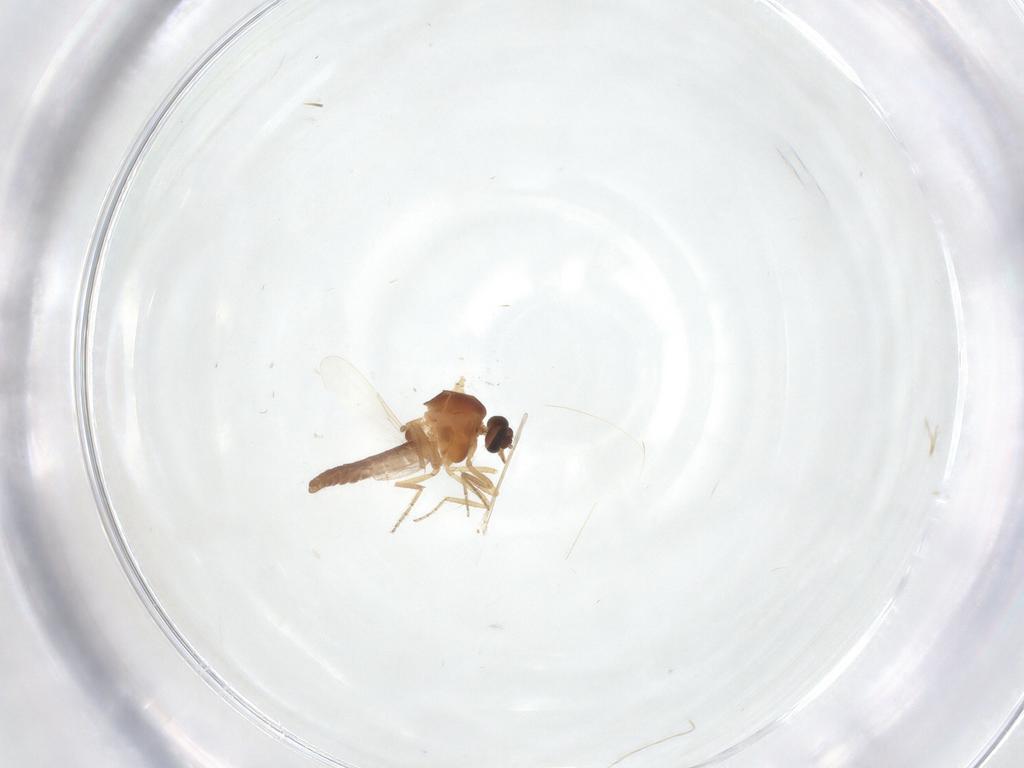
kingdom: Animalia
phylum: Arthropoda
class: Insecta
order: Diptera
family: Ceratopogonidae
